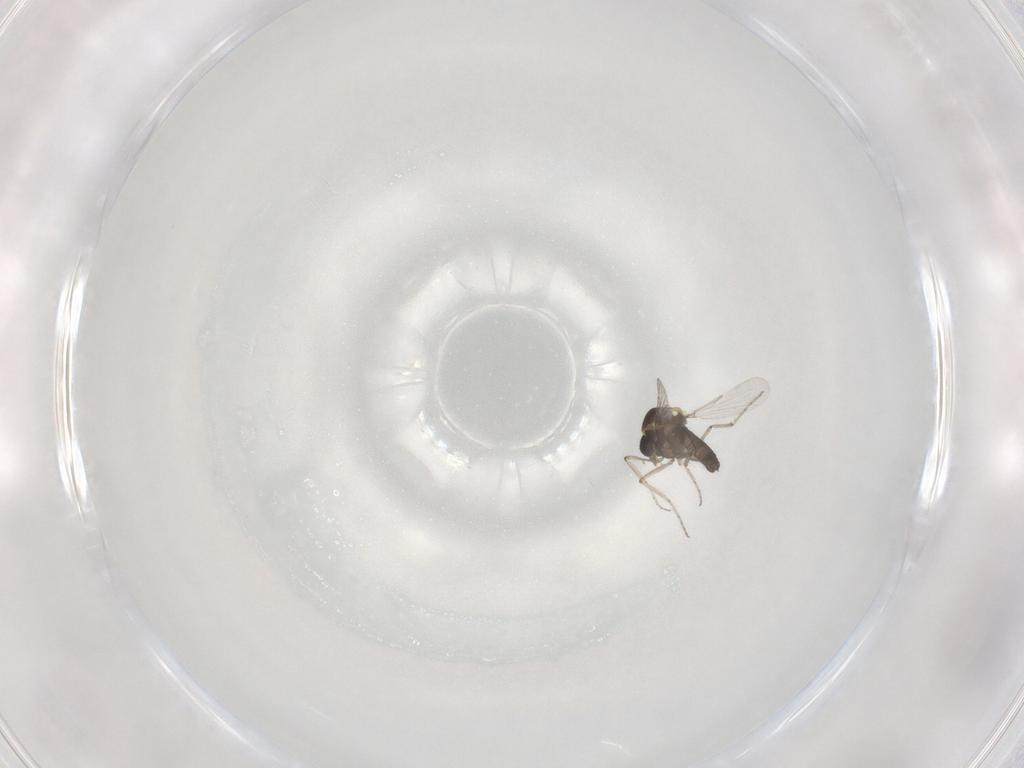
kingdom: Animalia
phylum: Arthropoda
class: Insecta
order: Diptera
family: Ceratopogonidae
